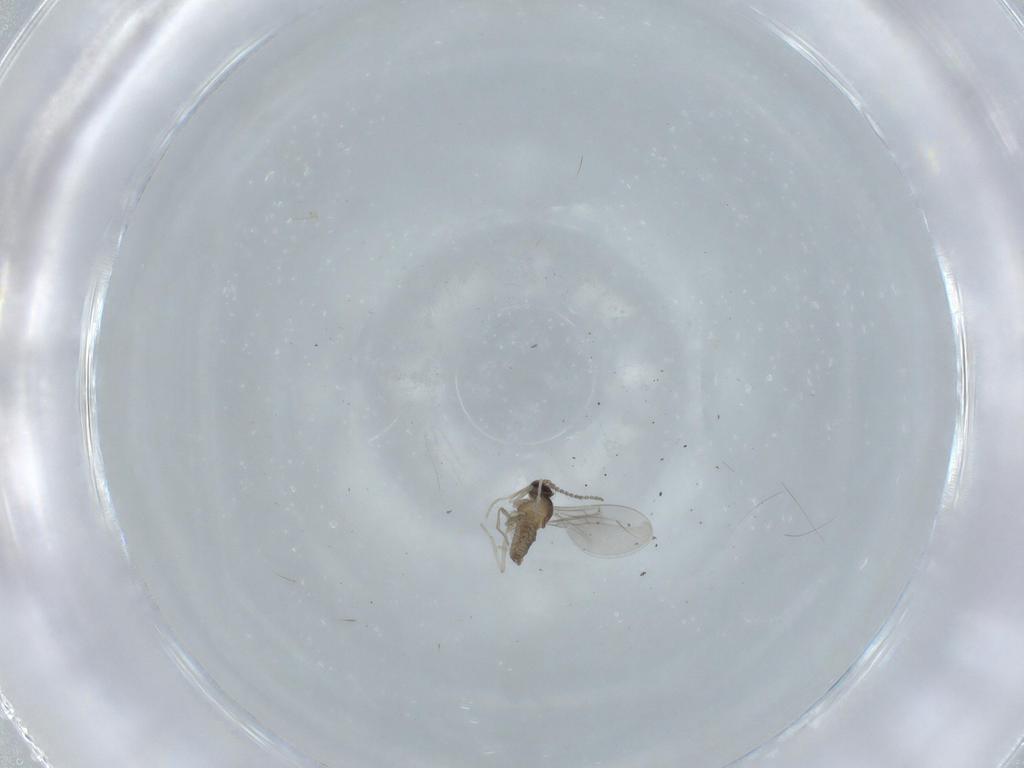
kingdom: Animalia
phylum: Arthropoda
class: Insecta
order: Diptera
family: Cecidomyiidae
